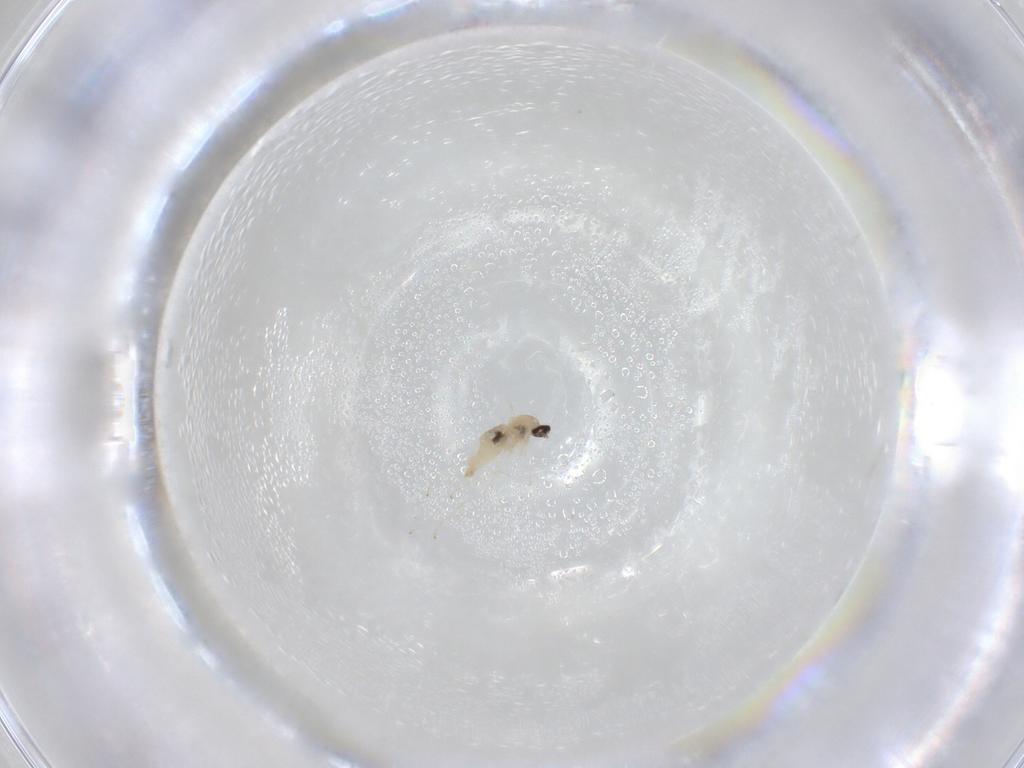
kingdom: Animalia
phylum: Arthropoda
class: Insecta
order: Diptera
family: Cecidomyiidae
